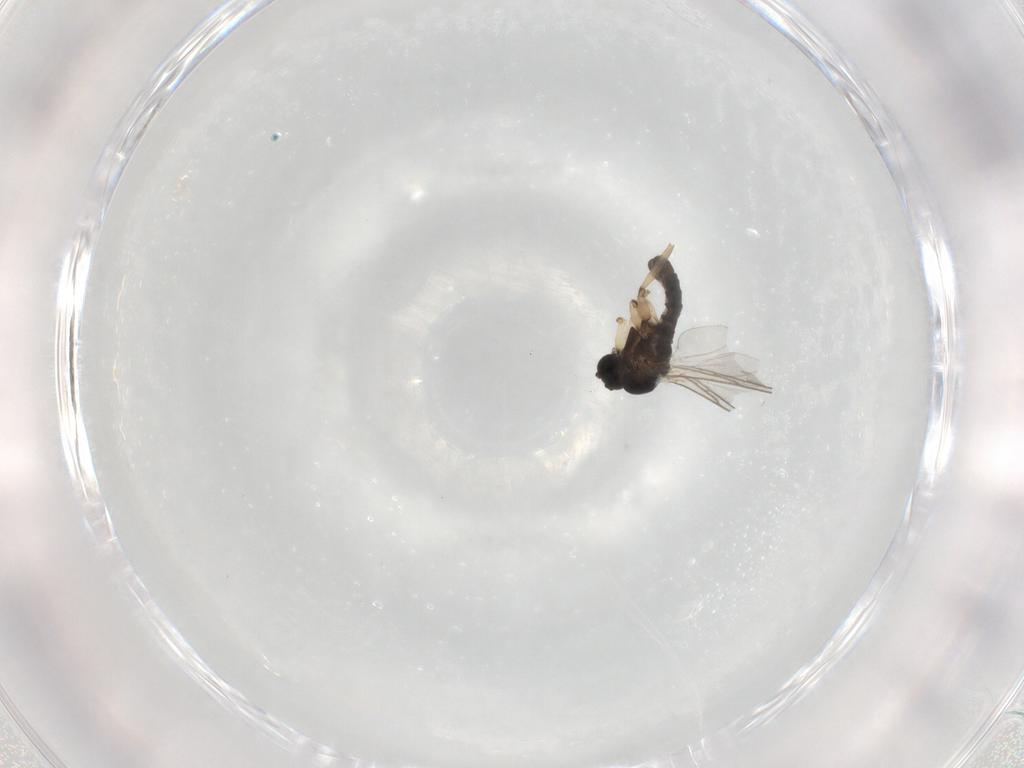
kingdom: Animalia
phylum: Arthropoda
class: Insecta
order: Diptera
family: Sciaridae
